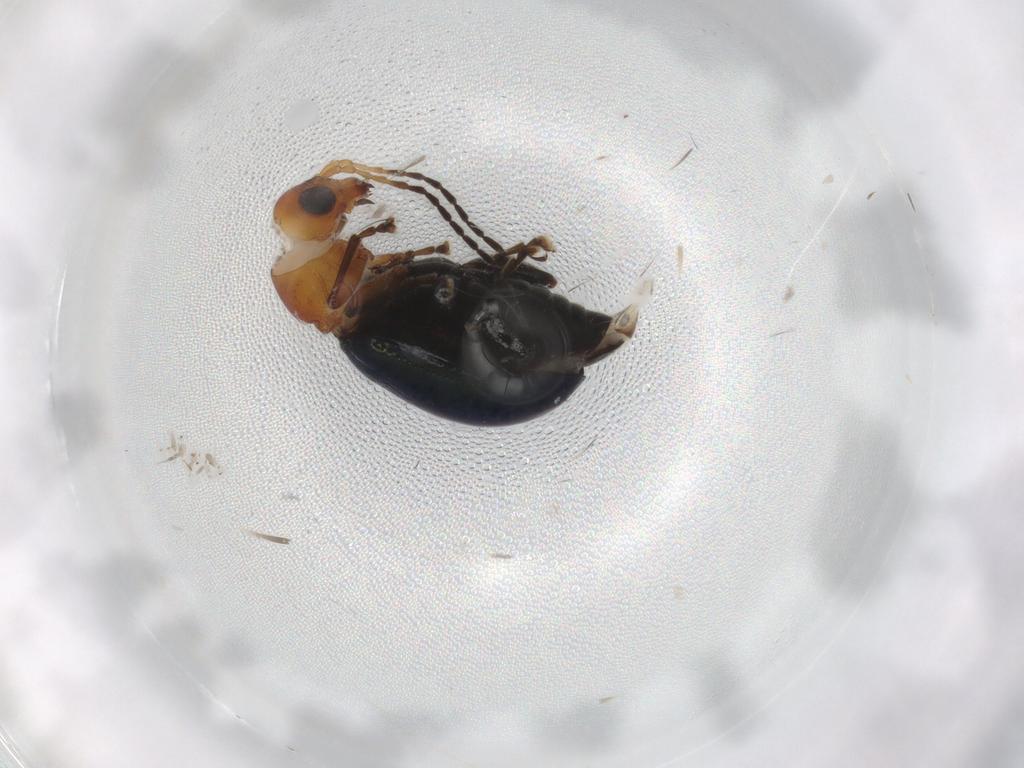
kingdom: Animalia
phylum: Arthropoda
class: Insecta
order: Coleoptera
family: Chrysomelidae
